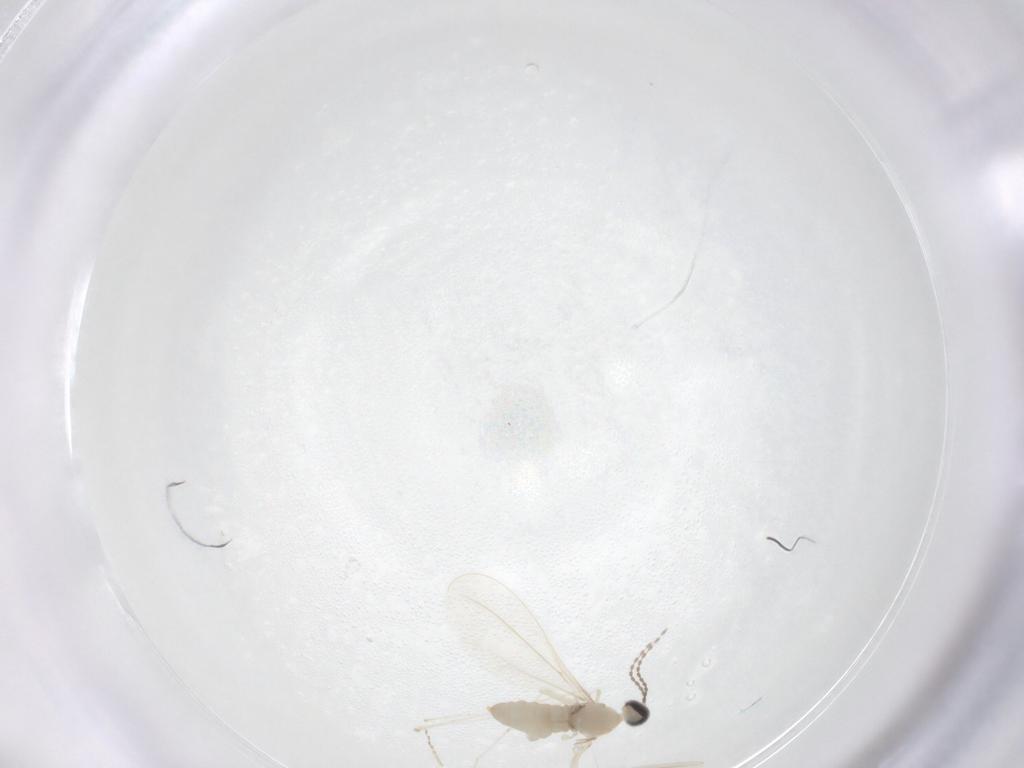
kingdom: Animalia
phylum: Arthropoda
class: Insecta
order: Diptera
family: Cecidomyiidae
